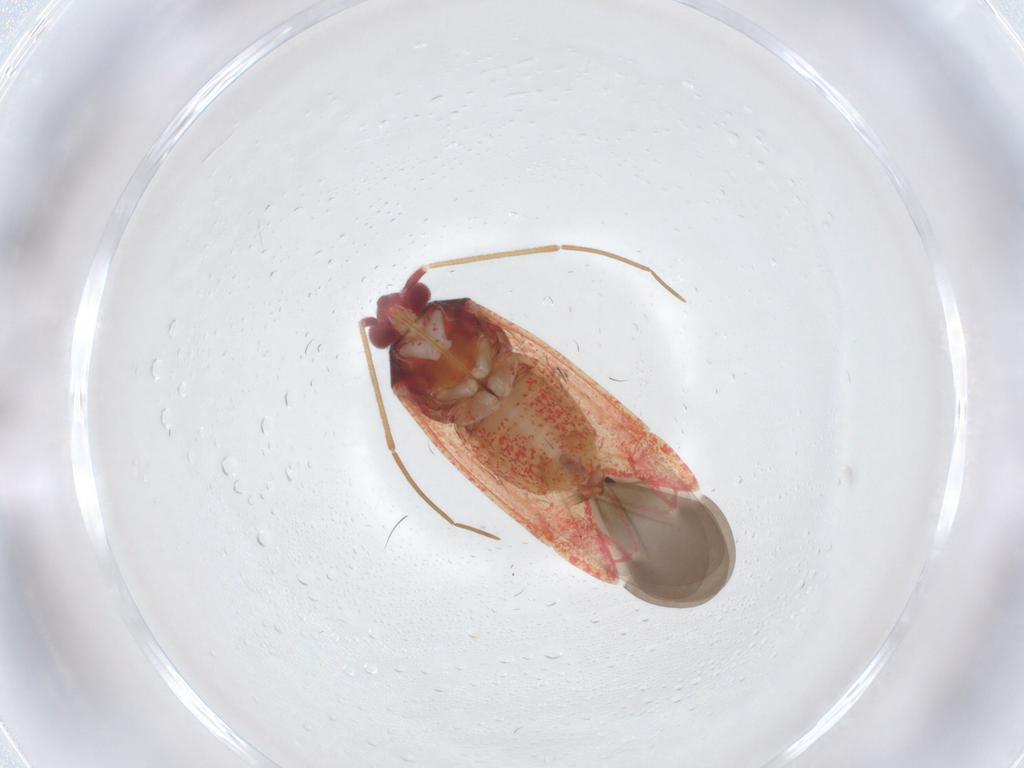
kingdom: Animalia
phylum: Arthropoda
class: Insecta
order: Hemiptera
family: Miridae
